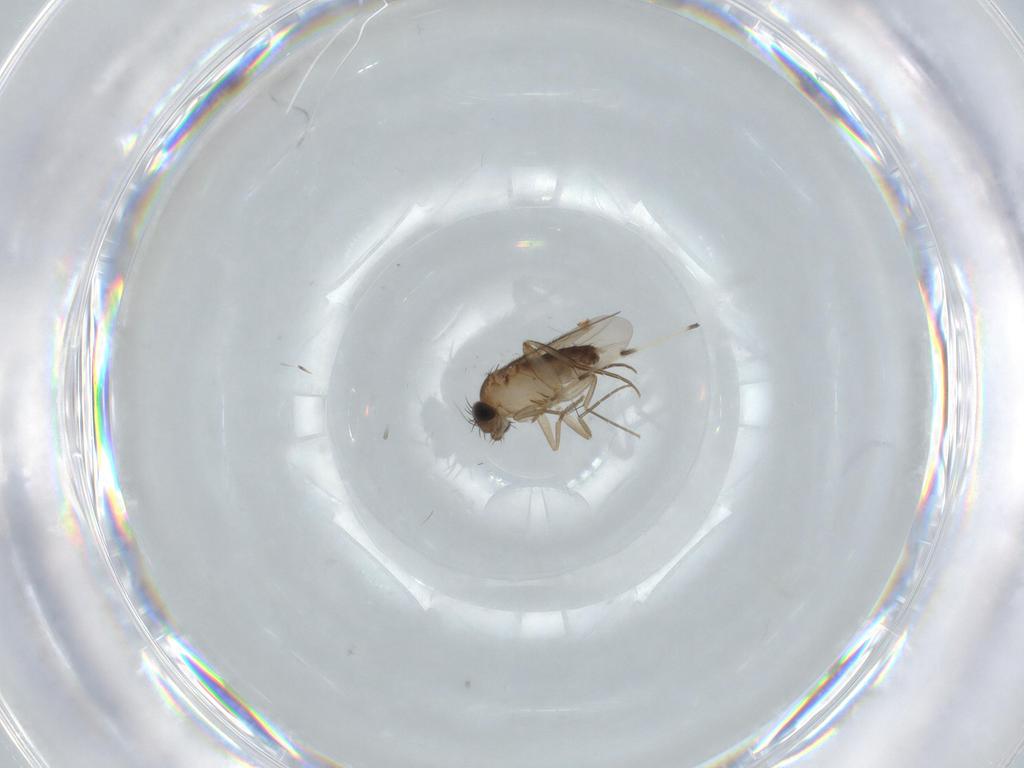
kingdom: Animalia
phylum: Arthropoda
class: Insecta
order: Diptera
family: Phoridae
